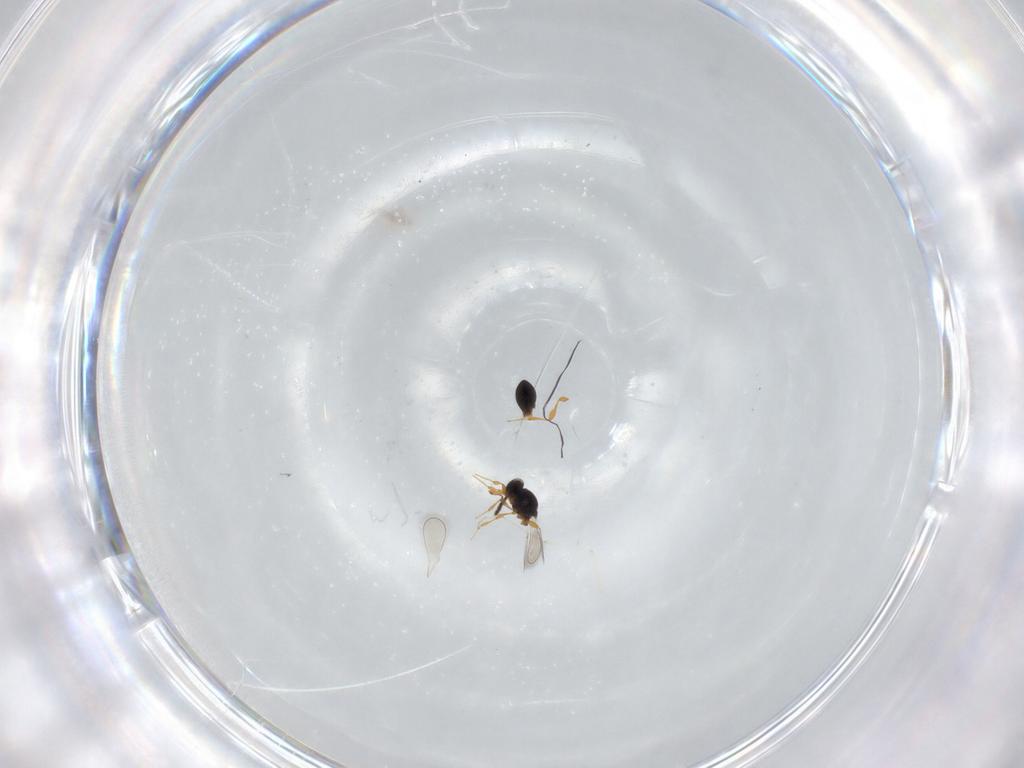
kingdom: Animalia
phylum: Arthropoda
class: Insecta
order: Hymenoptera
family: Platygastridae
